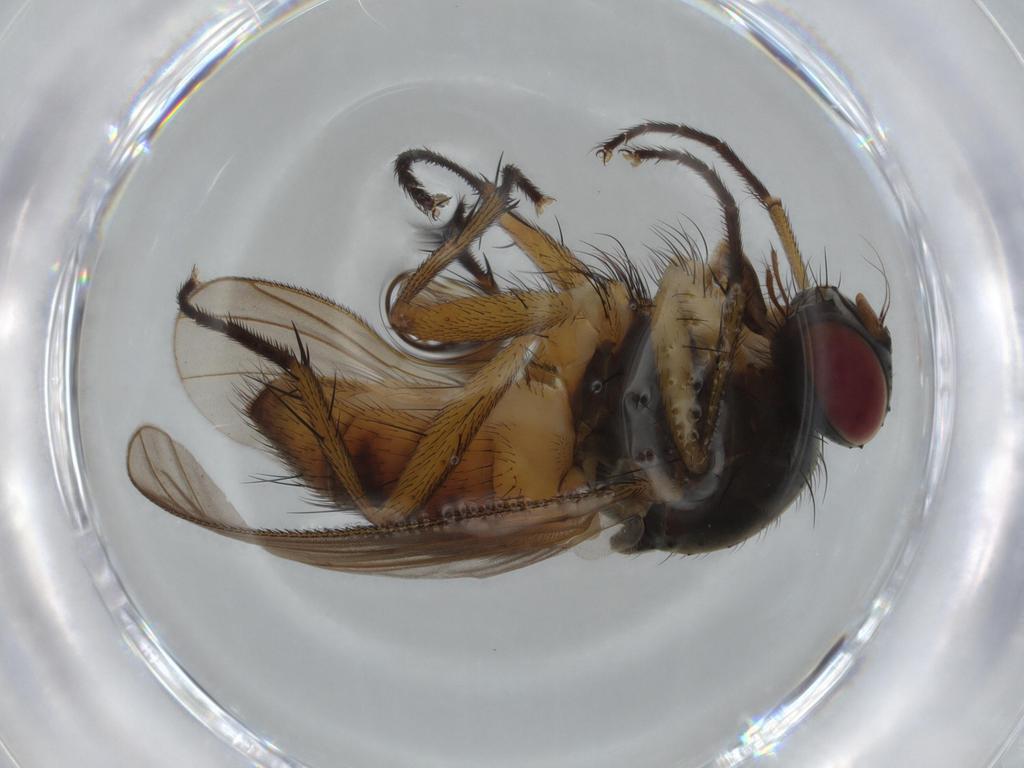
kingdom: Animalia
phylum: Arthropoda
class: Insecta
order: Diptera
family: Muscidae
